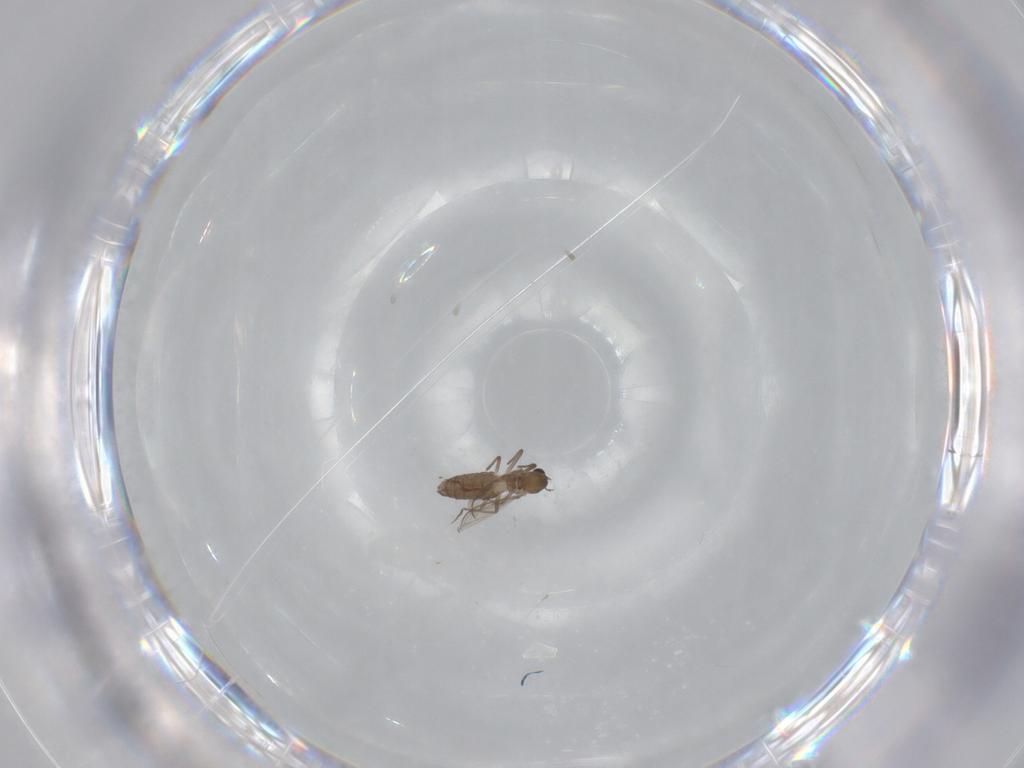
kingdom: Animalia
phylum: Arthropoda
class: Insecta
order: Diptera
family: Chironomidae
